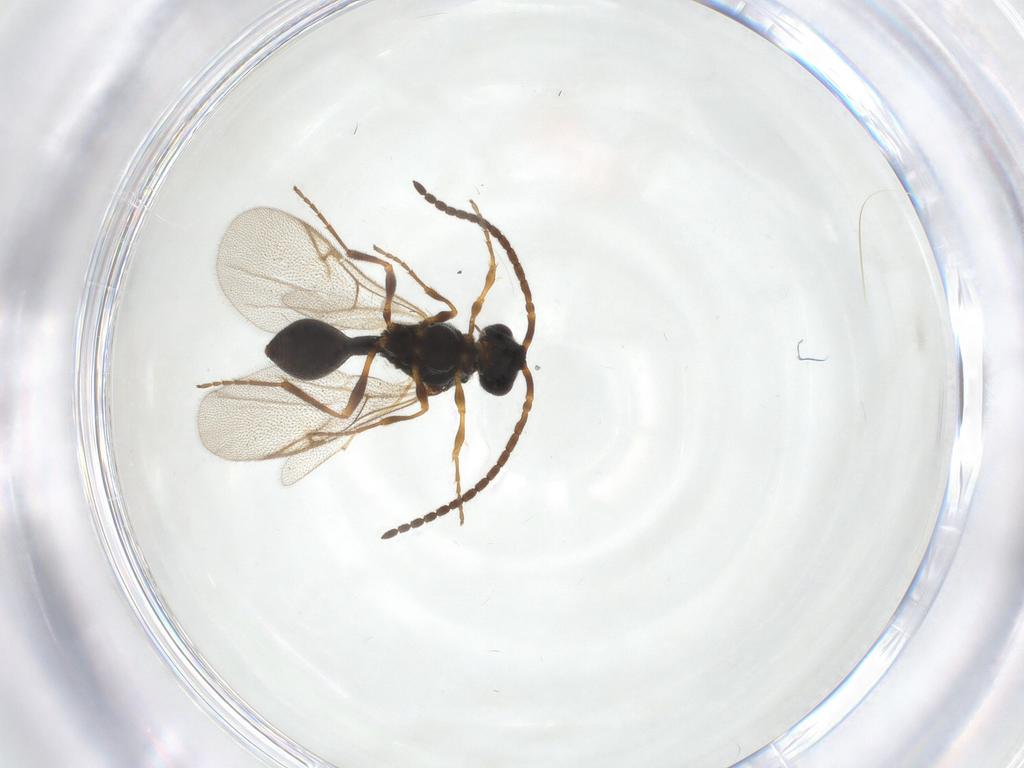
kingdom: Animalia
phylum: Arthropoda
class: Insecta
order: Hymenoptera
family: Diapriidae
